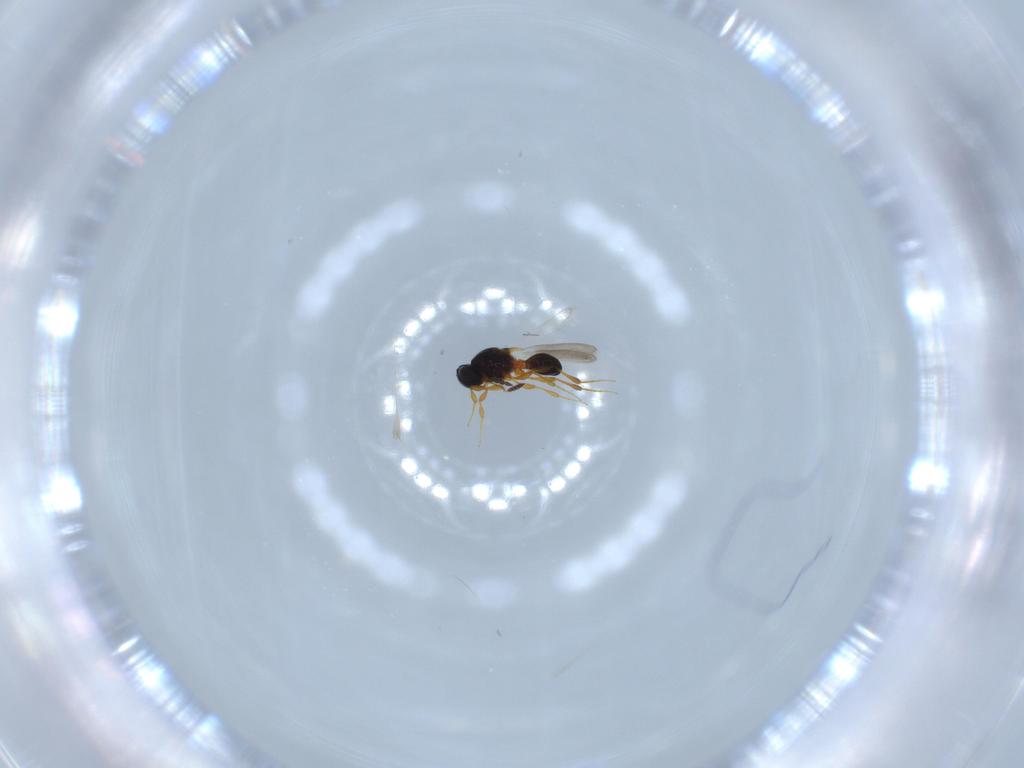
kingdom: Animalia
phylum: Arthropoda
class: Insecta
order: Hymenoptera
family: Platygastridae
